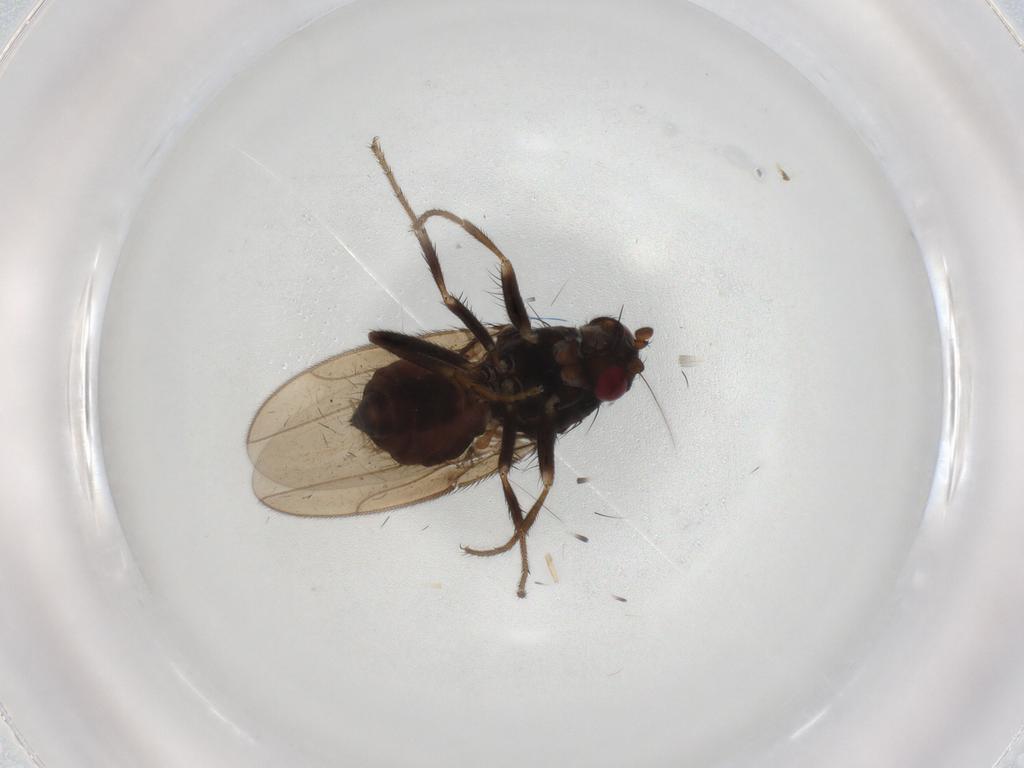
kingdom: Animalia
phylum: Arthropoda
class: Insecta
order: Diptera
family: Sphaeroceridae
